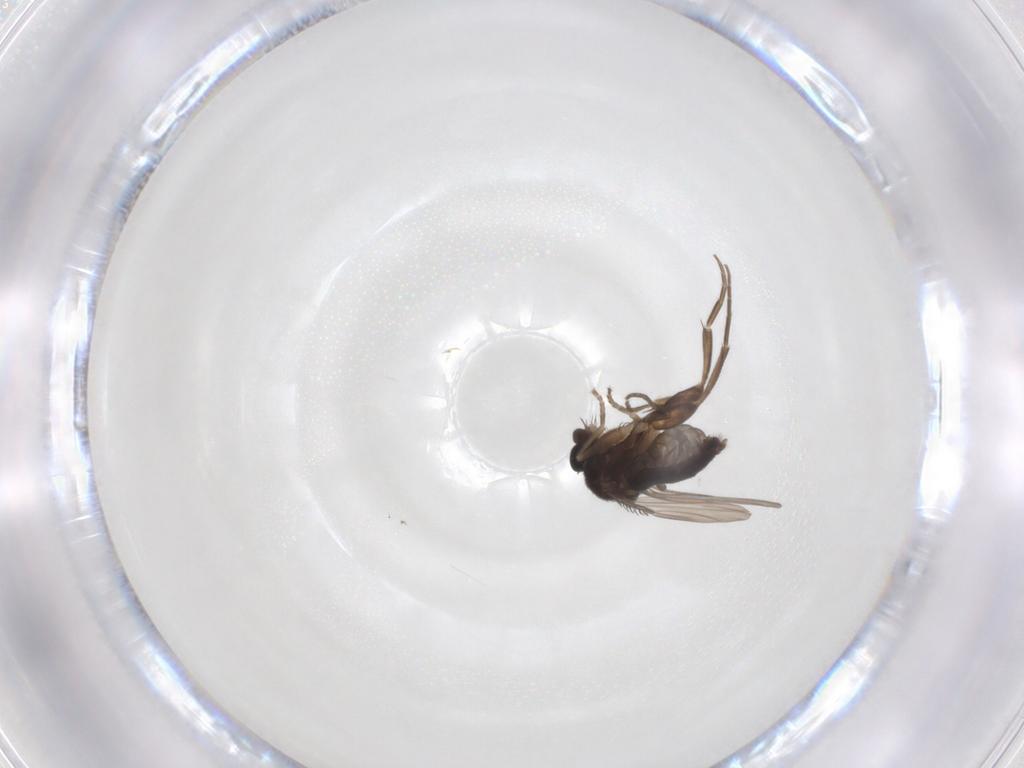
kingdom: Animalia
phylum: Arthropoda
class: Insecta
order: Diptera
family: Phoridae
